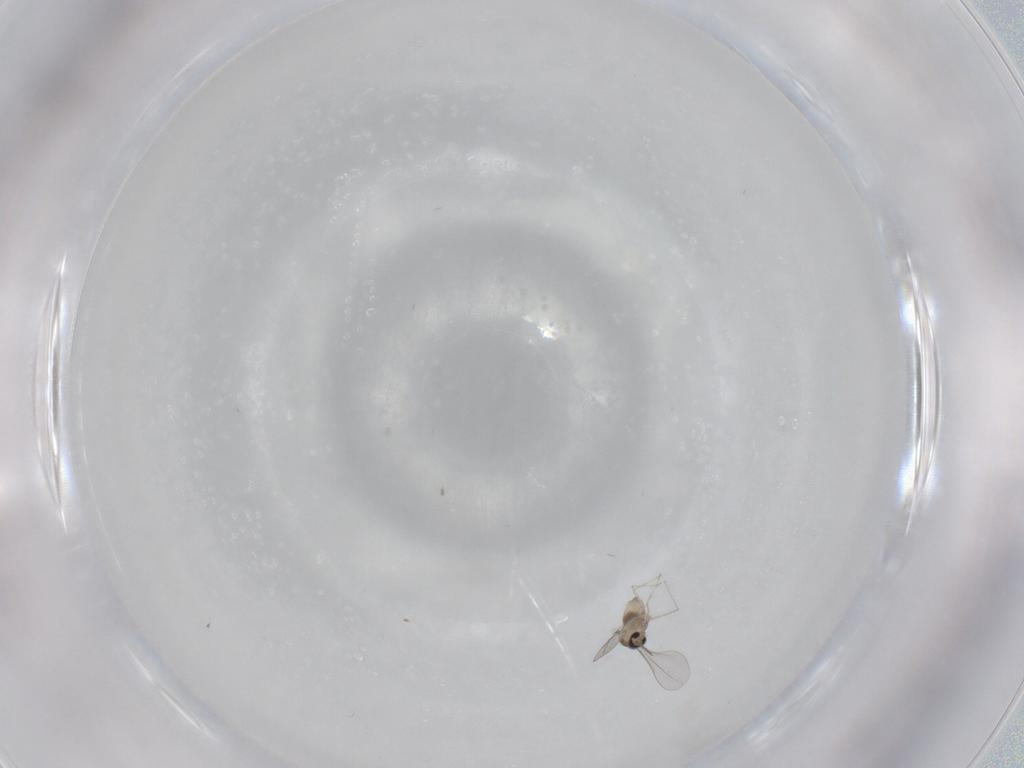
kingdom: Animalia
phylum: Arthropoda
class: Insecta
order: Diptera
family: Cecidomyiidae
